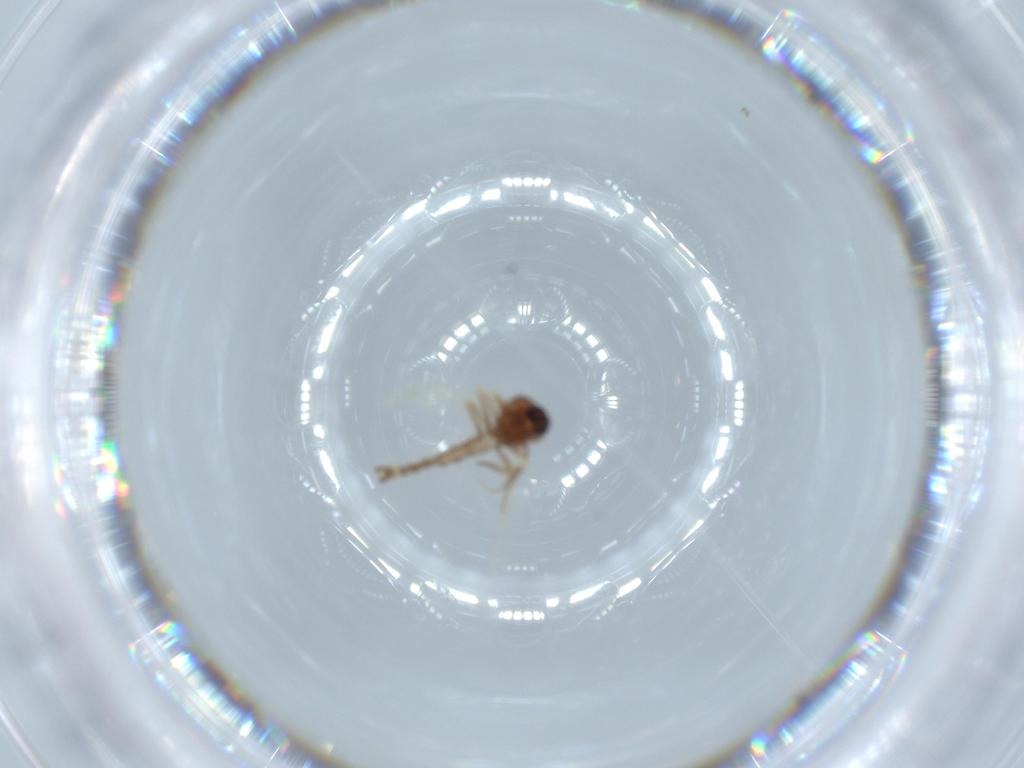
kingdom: Animalia
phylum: Arthropoda
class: Insecta
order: Diptera
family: Ceratopogonidae
